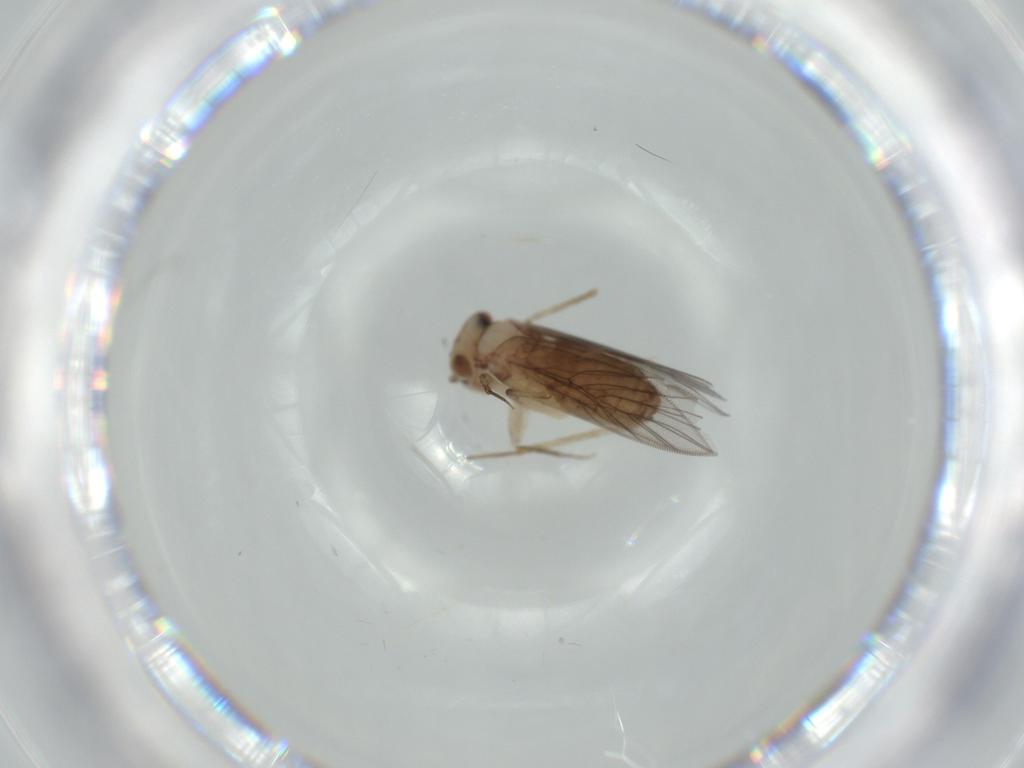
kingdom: Animalia
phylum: Arthropoda
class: Insecta
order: Psocodea
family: Lepidopsocidae
